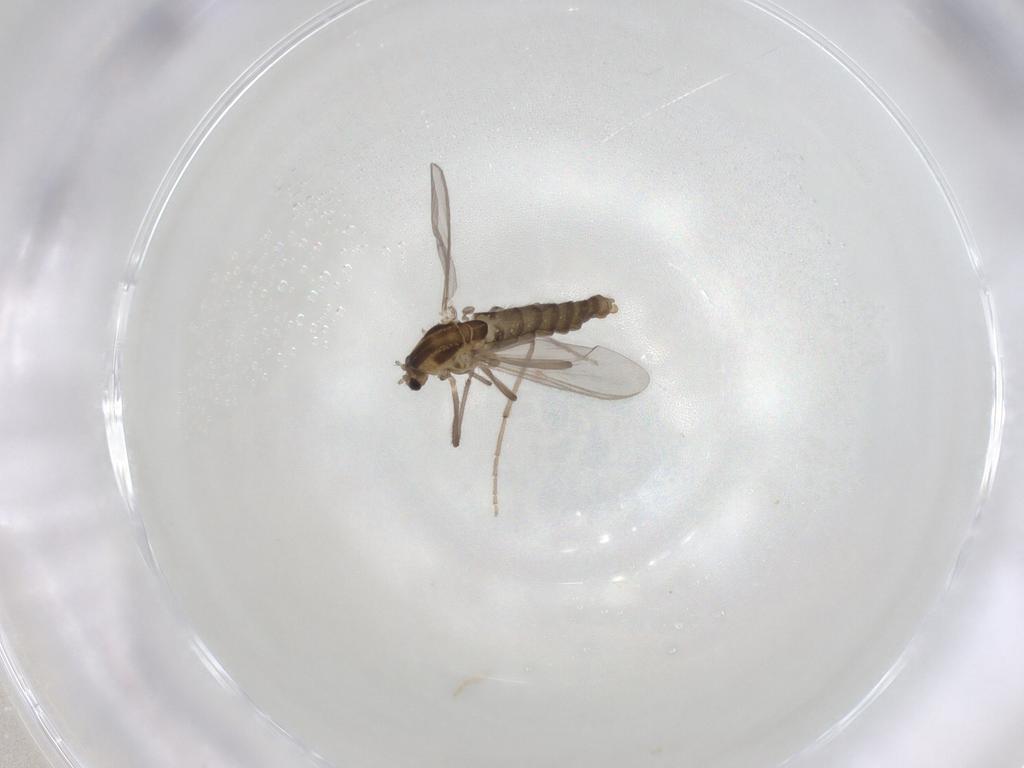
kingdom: Animalia
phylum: Arthropoda
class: Insecta
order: Diptera
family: Chironomidae
